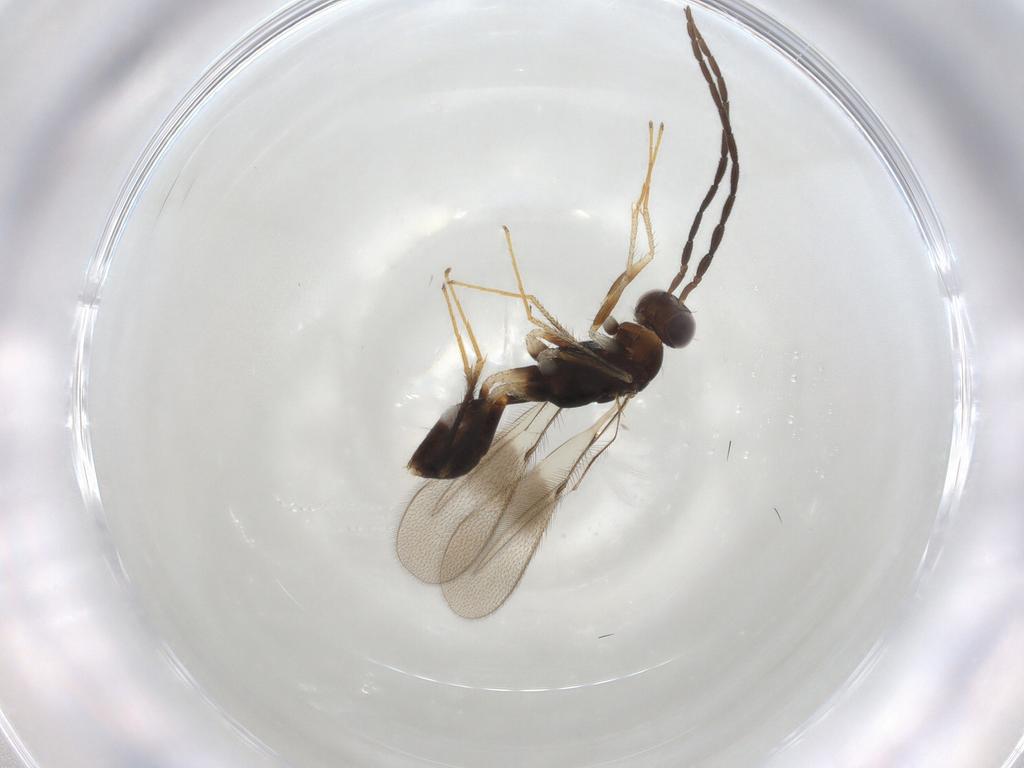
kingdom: Animalia
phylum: Arthropoda
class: Insecta
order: Hymenoptera
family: Mymaridae
